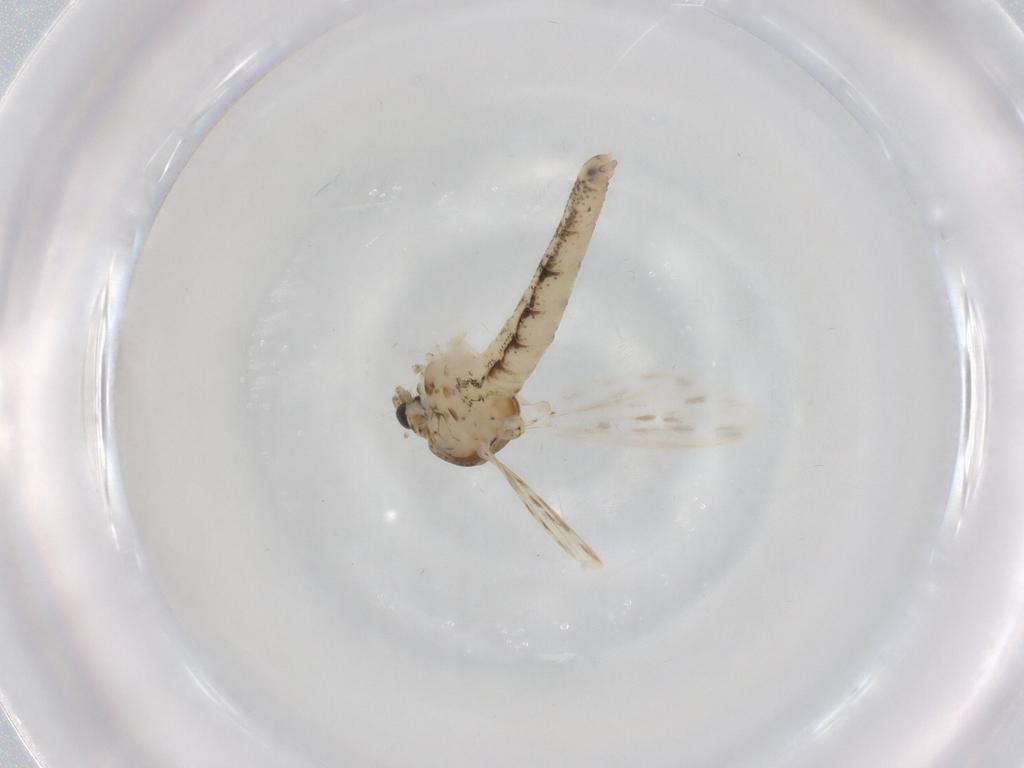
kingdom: Animalia
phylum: Arthropoda
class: Insecta
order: Diptera
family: Chaoboridae
